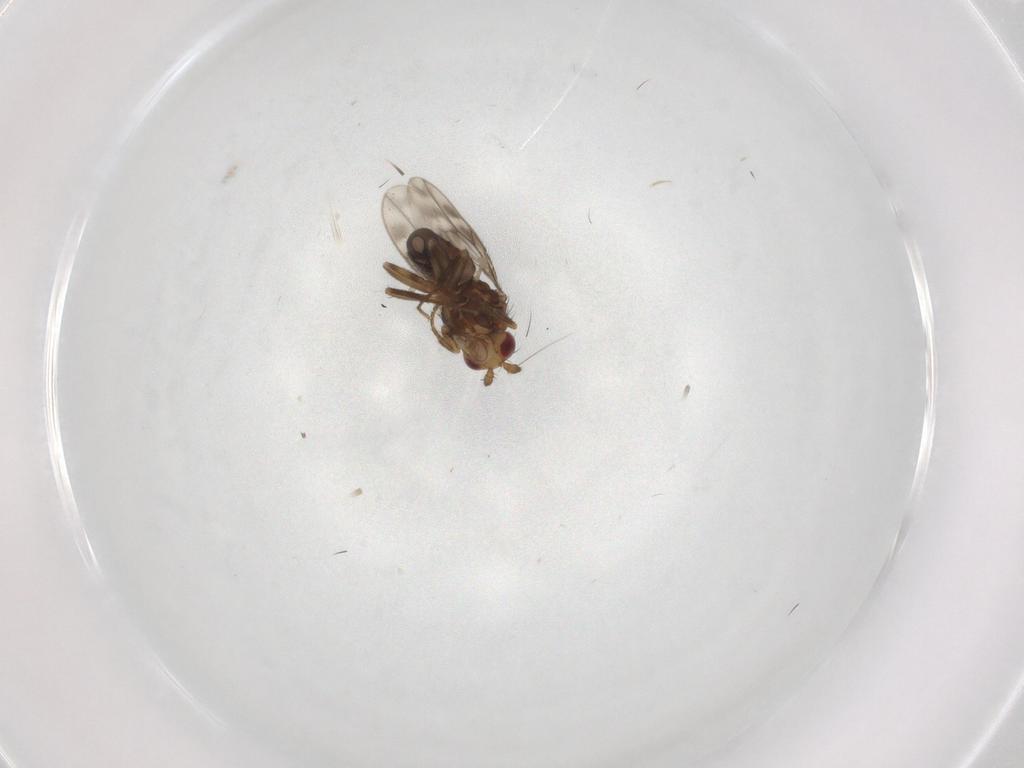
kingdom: Animalia
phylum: Arthropoda
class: Insecta
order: Diptera
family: Sphaeroceridae
